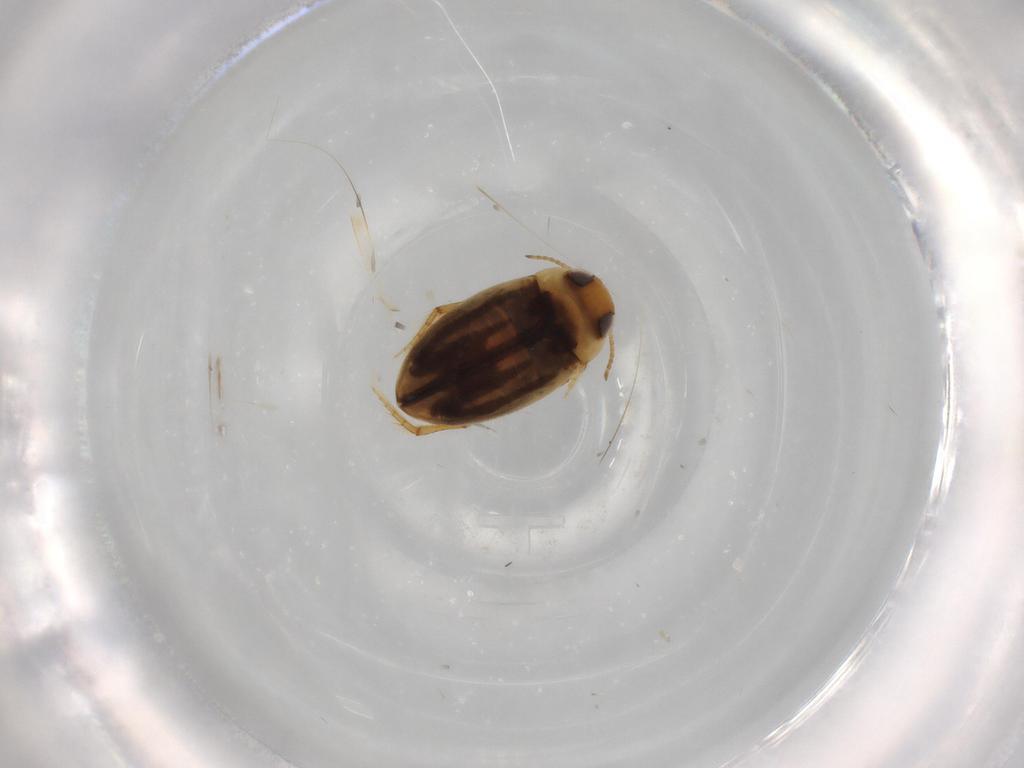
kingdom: Animalia
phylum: Arthropoda
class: Insecta
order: Coleoptera
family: Dytiscidae
